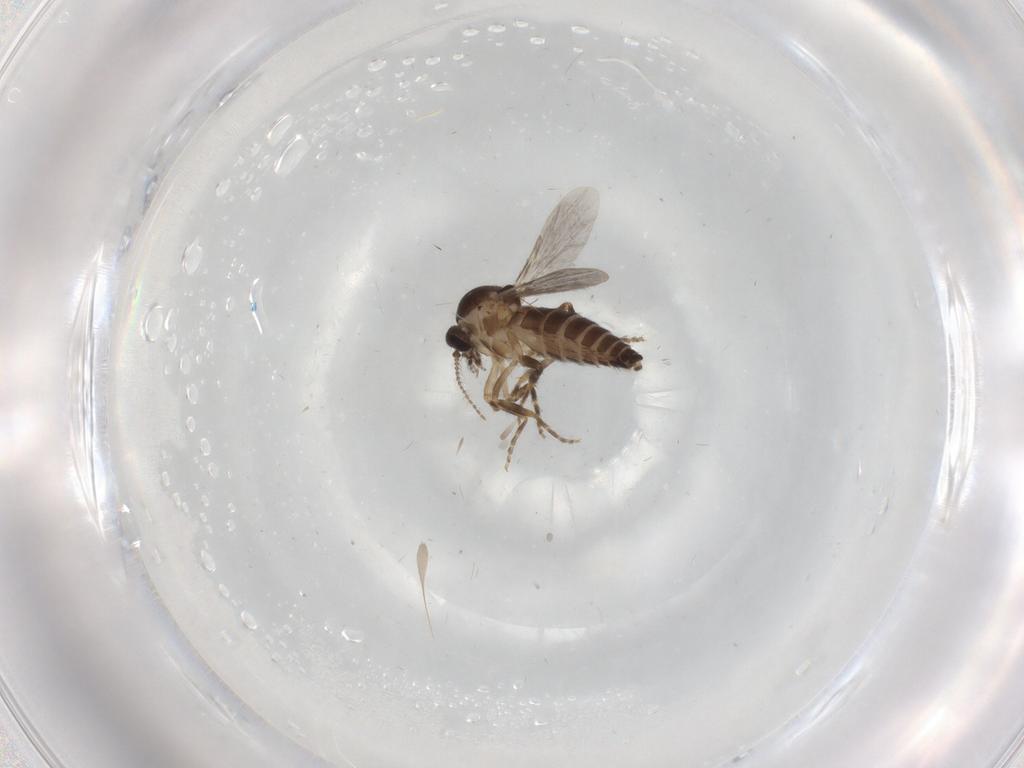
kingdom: Animalia
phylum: Arthropoda
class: Insecta
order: Diptera
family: Ceratopogonidae
